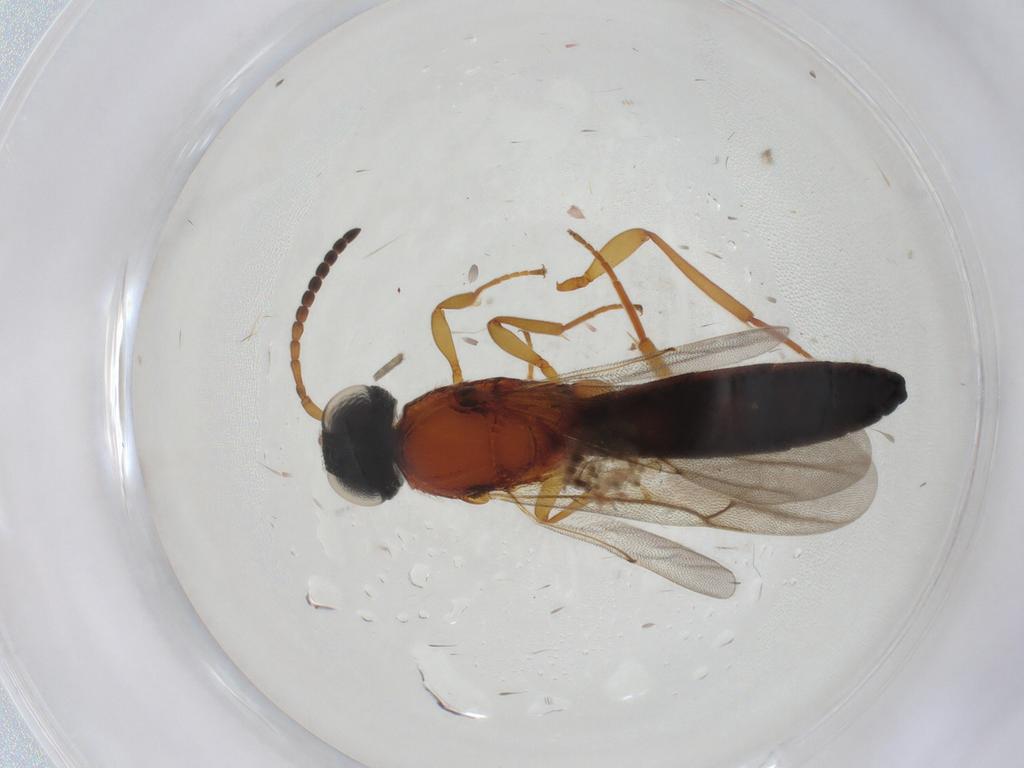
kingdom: Animalia
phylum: Arthropoda
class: Insecta
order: Hymenoptera
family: Scelionidae
